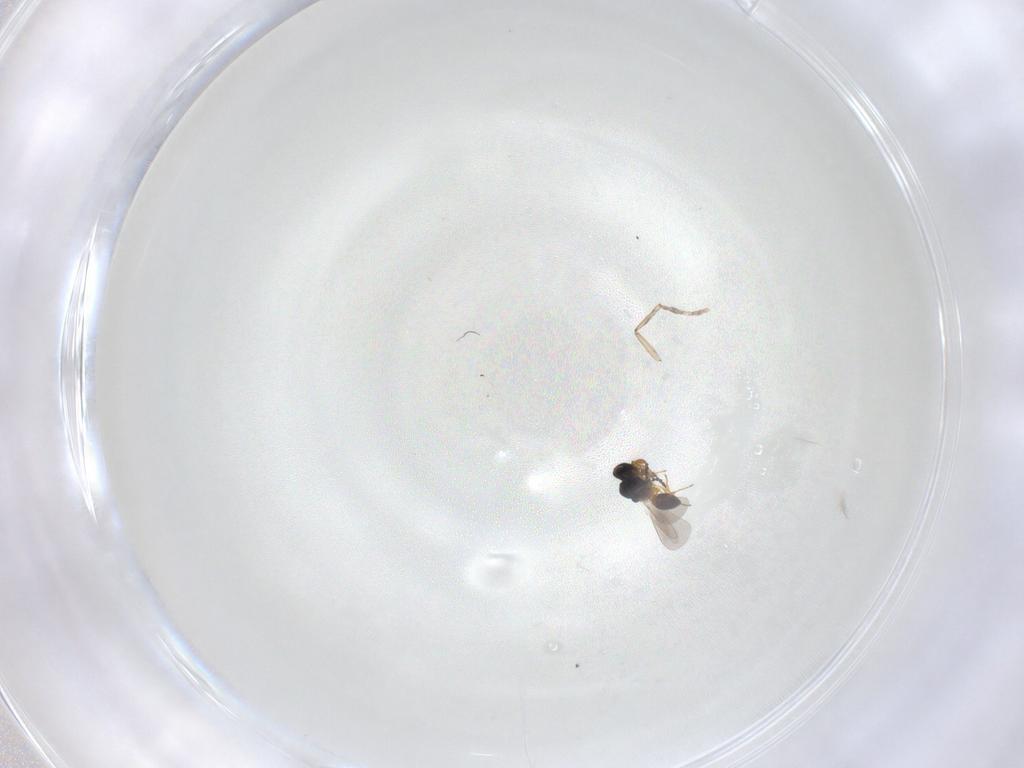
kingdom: Animalia
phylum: Arthropoda
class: Insecta
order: Hymenoptera
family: Platygastridae
